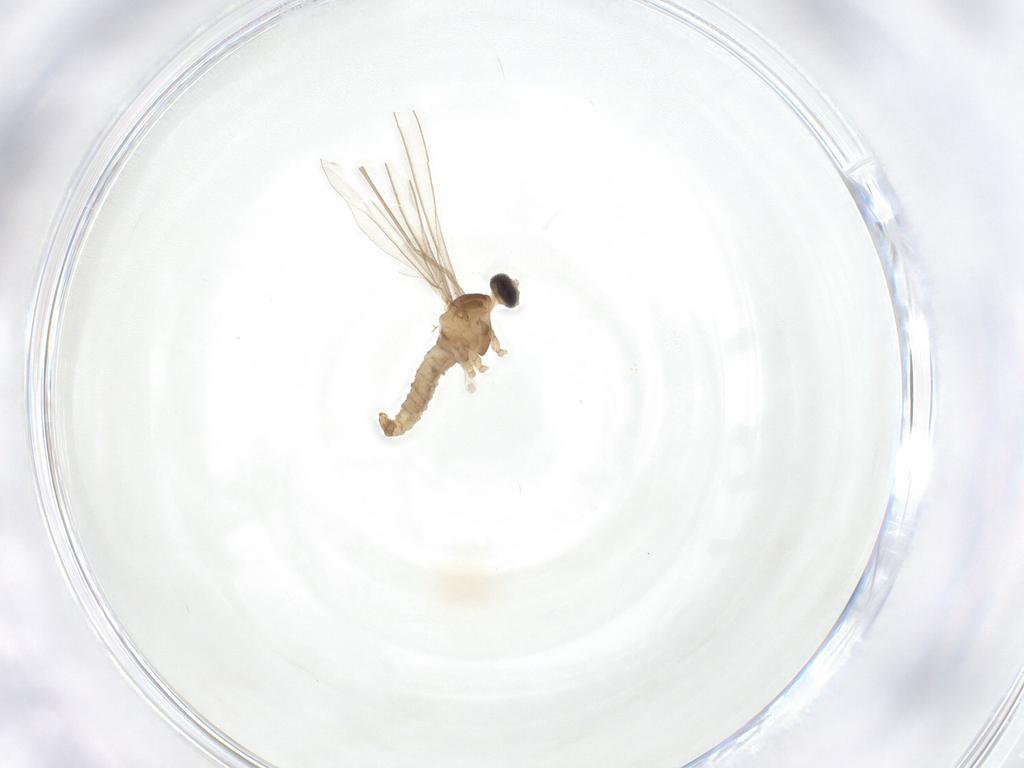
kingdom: Animalia
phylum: Arthropoda
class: Insecta
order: Diptera
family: Cecidomyiidae
